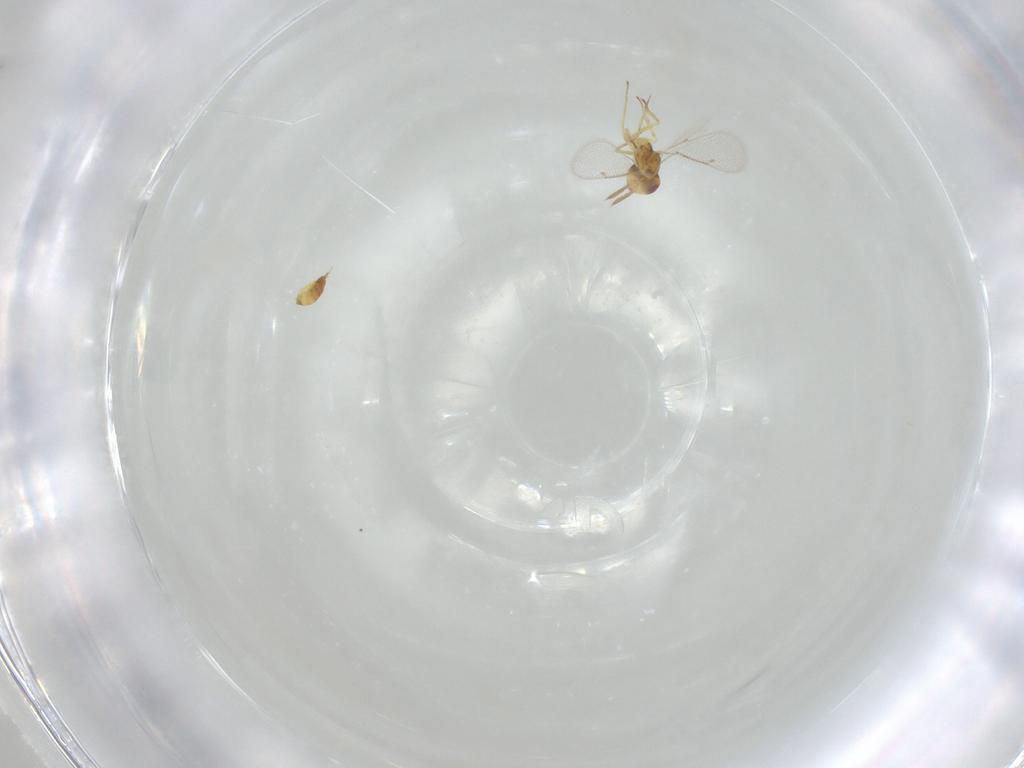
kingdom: Animalia
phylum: Arthropoda
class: Insecta
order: Hymenoptera
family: Eulophidae
